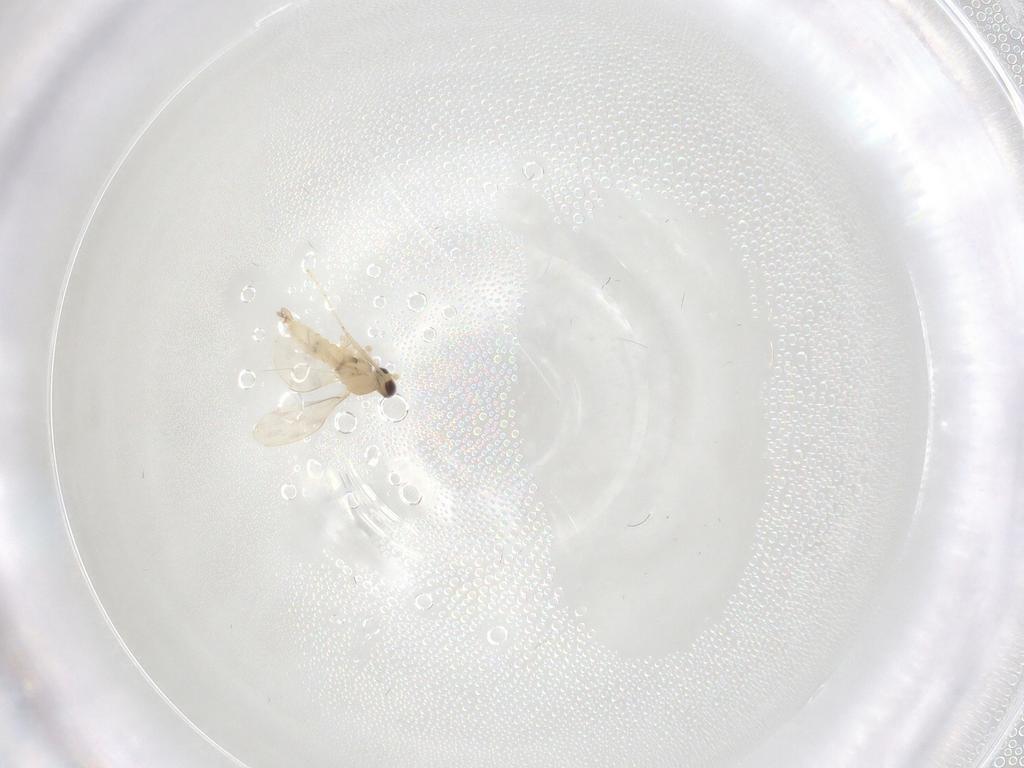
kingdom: Animalia
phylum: Arthropoda
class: Insecta
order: Diptera
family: Cecidomyiidae
